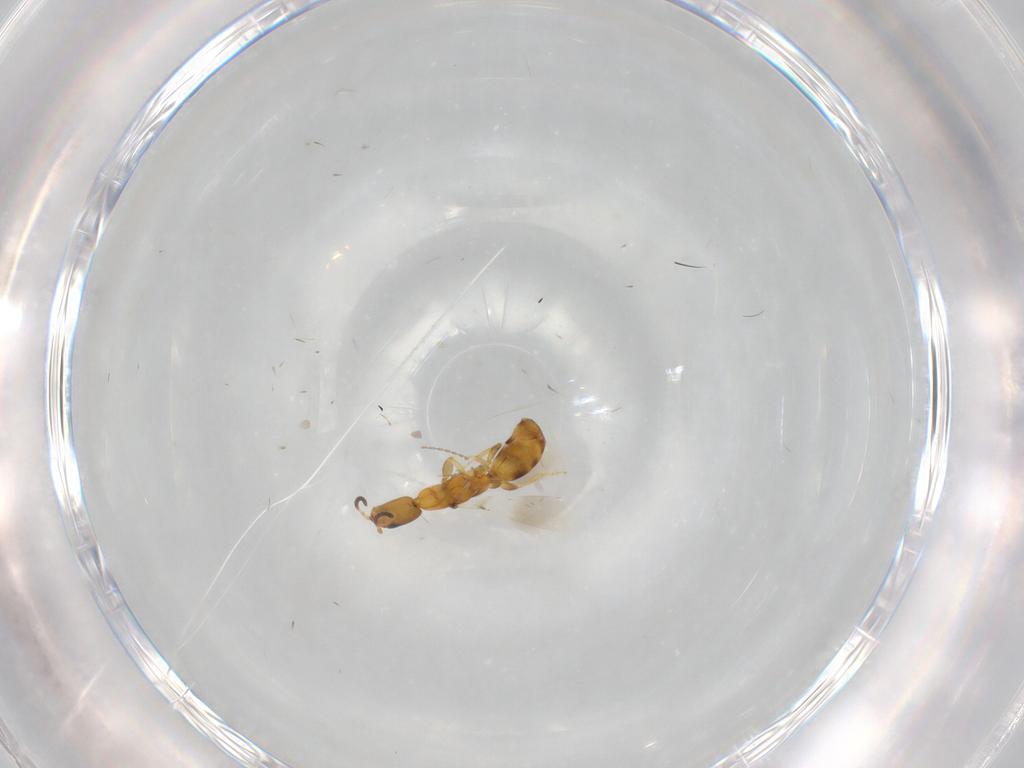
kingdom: Animalia
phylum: Arthropoda
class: Insecta
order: Hymenoptera
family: Bethylidae
